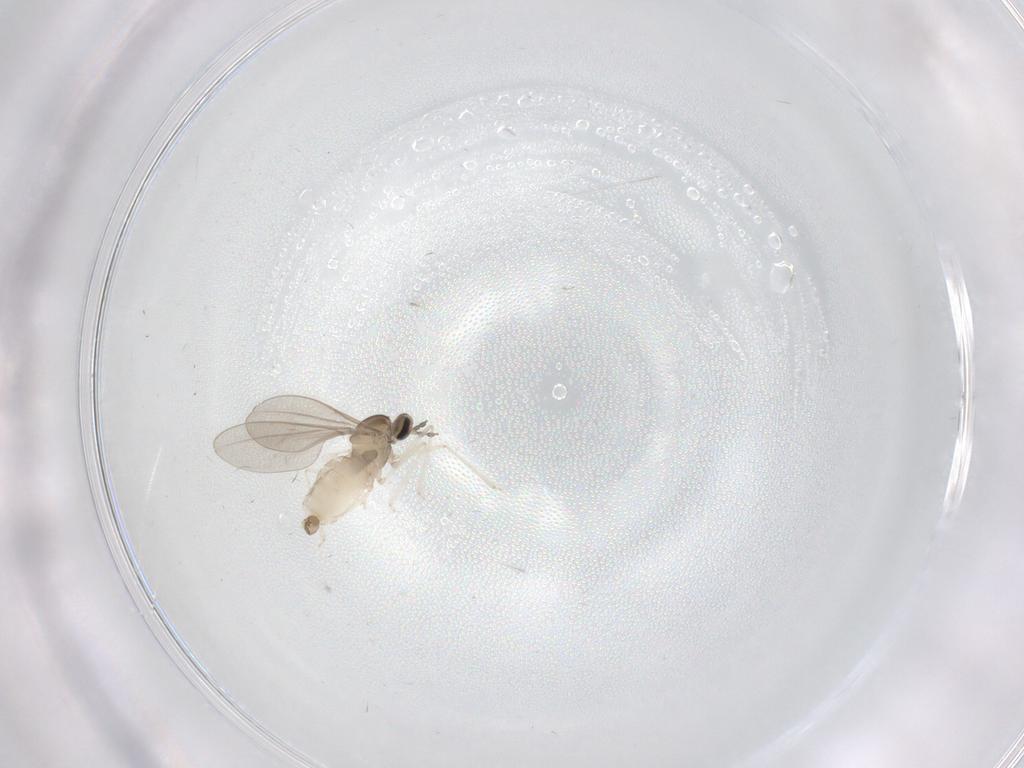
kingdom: Animalia
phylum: Arthropoda
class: Insecta
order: Diptera
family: Cecidomyiidae
